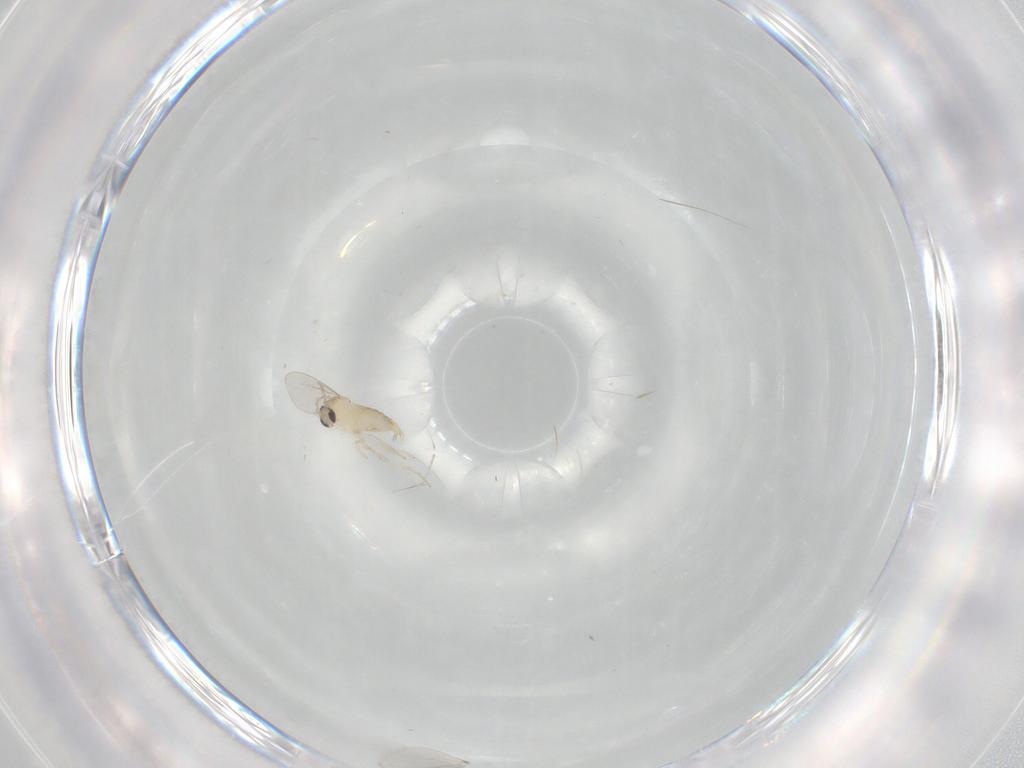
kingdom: Animalia
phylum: Arthropoda
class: Insecta
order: Diptera
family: Cecidomyiidae
